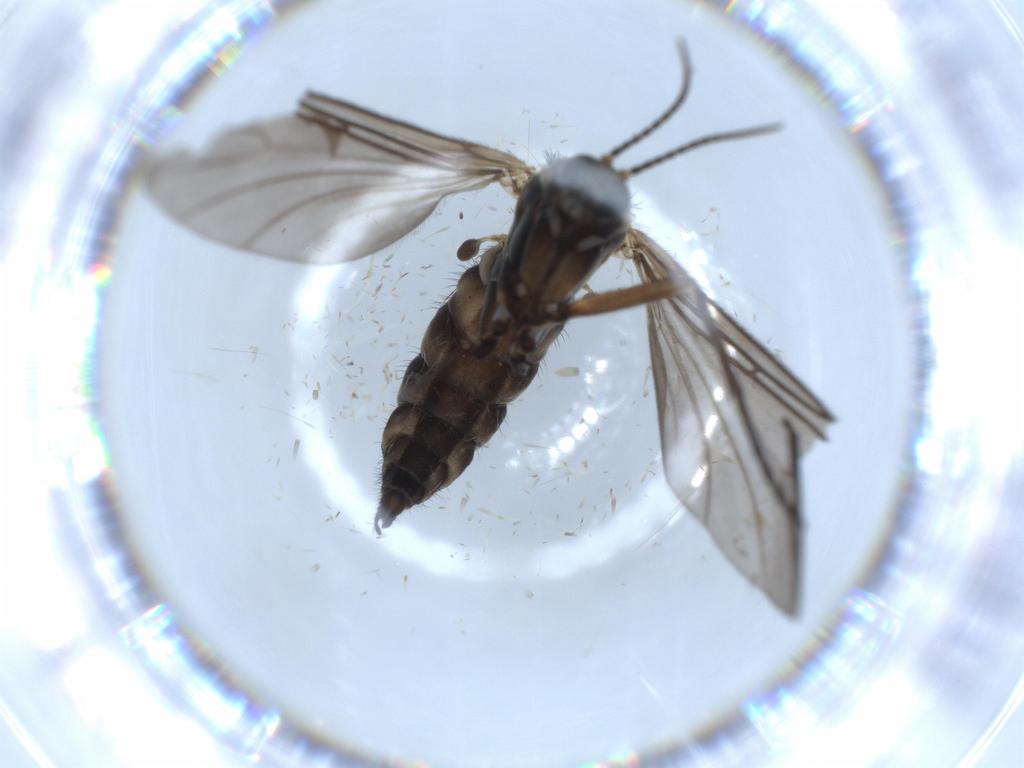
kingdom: Animalia
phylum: Arthropoda
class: Insecta
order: Diptera
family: Sciaridae
